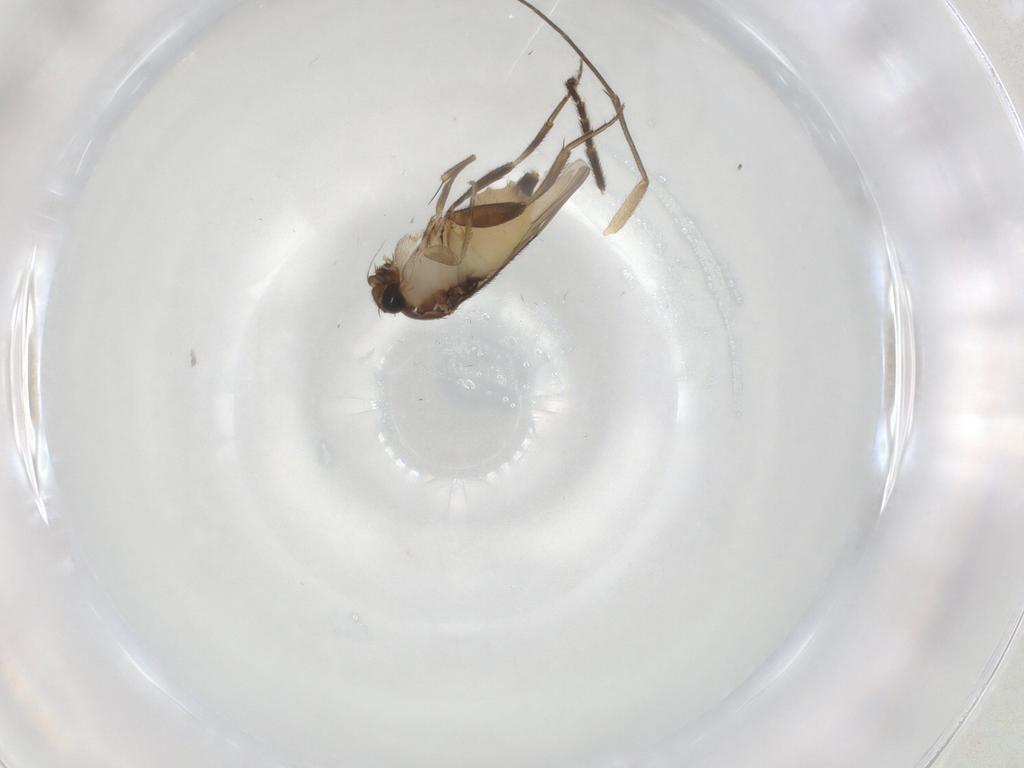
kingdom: Animalia
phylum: Arthropoda
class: Insecta
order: Diptera
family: Mycetophilidae
